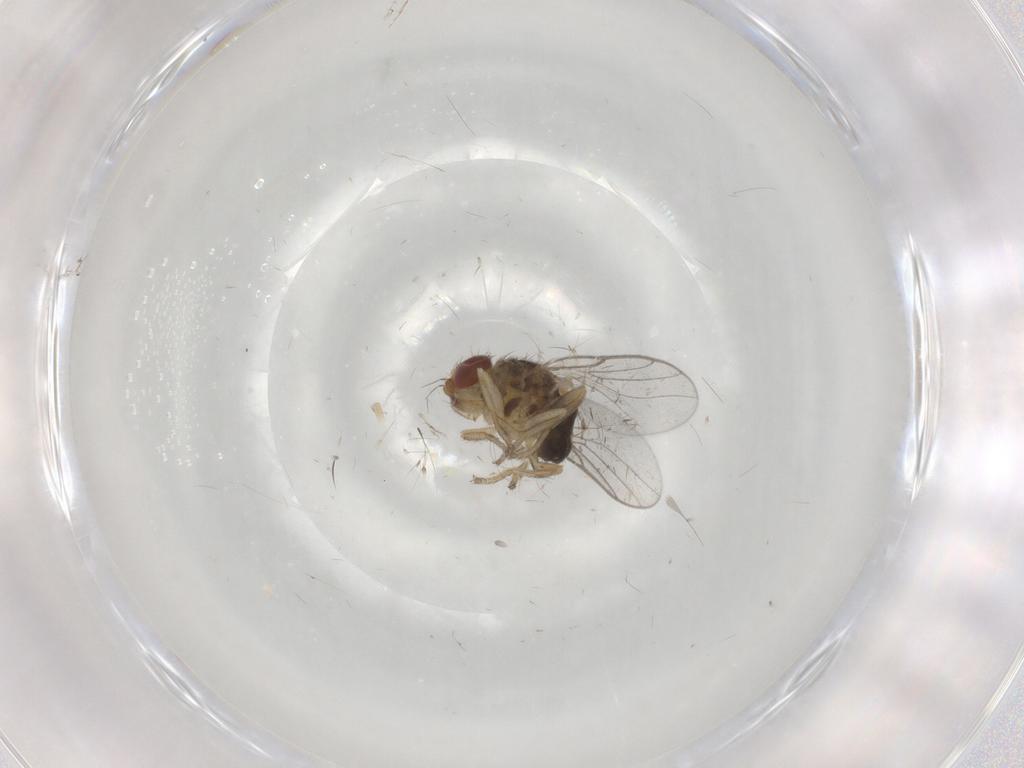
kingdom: Animalia
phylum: Arthropoda
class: Insecta
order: Diptera
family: Chloropidae
